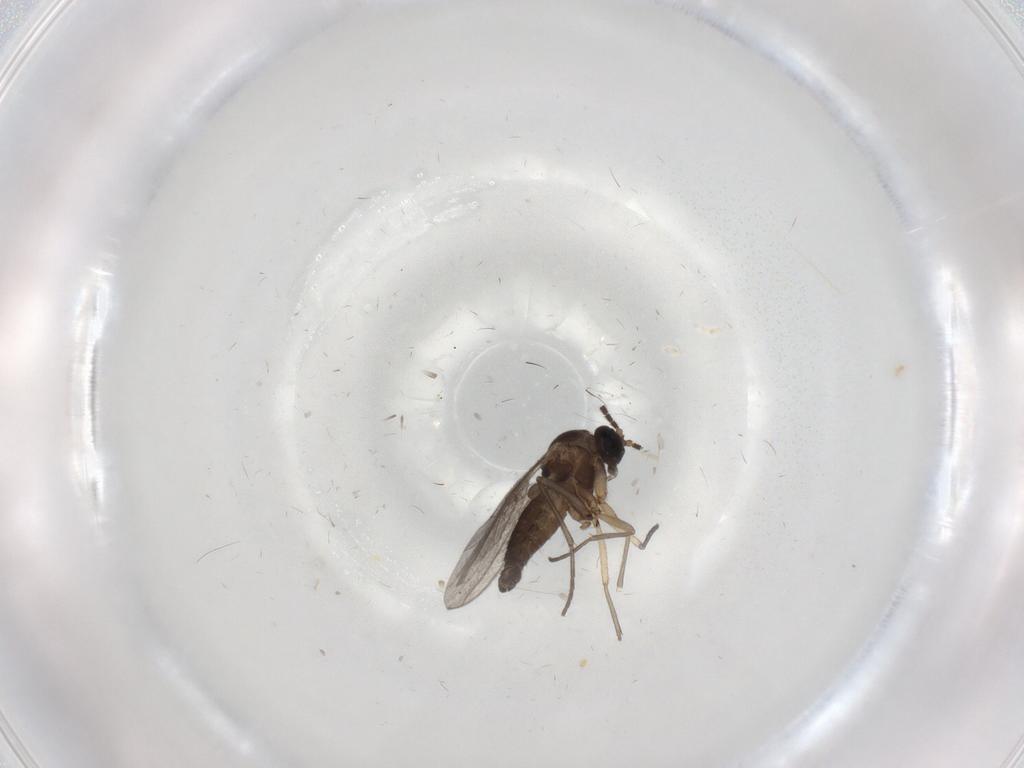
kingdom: Animalia
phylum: Arthropoda
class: Insecta
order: Diptera
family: Sciaridae
